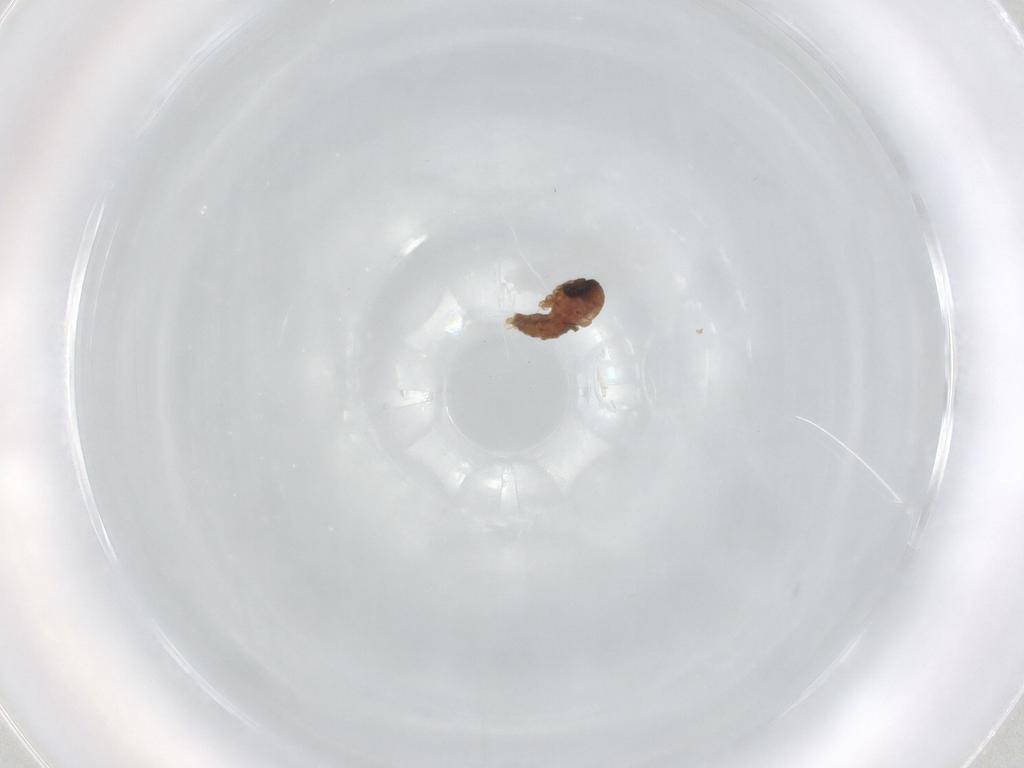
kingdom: Animalia
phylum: Arthropoda
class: Insecta
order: Diptera
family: Psychodidae
